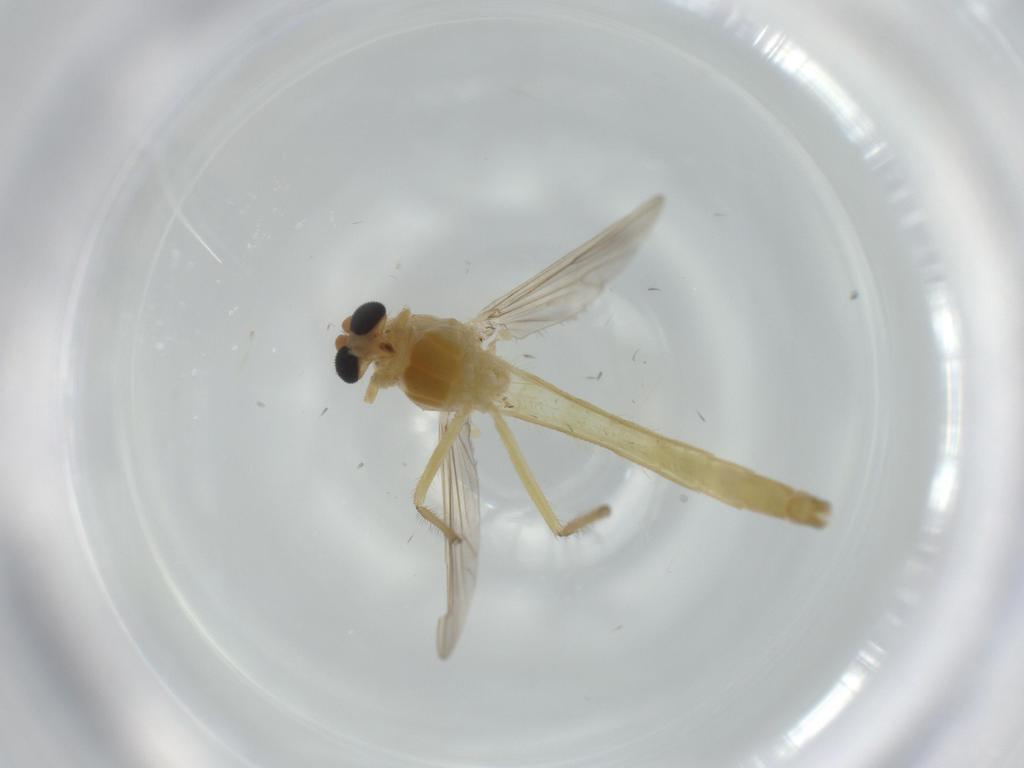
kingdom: Animalia
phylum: Arthropoda
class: Insecta
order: Diptera
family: Chironomidae
